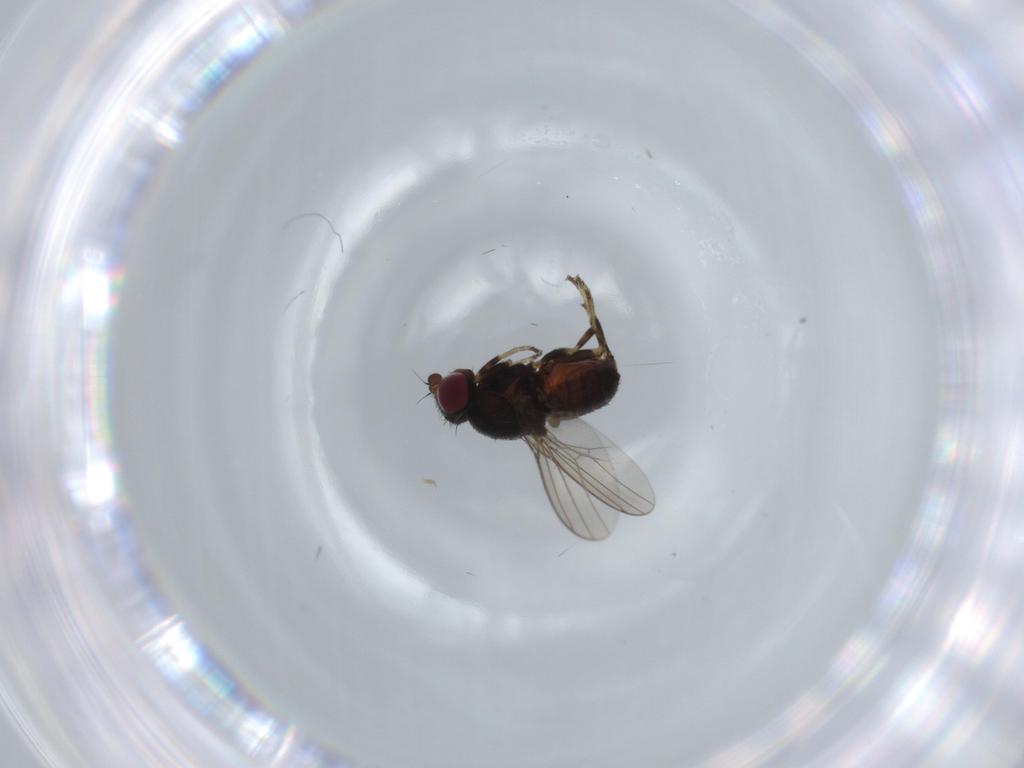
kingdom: Animalia
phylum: Arthropoda
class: Insecta
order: Diptera
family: Chloropidae
